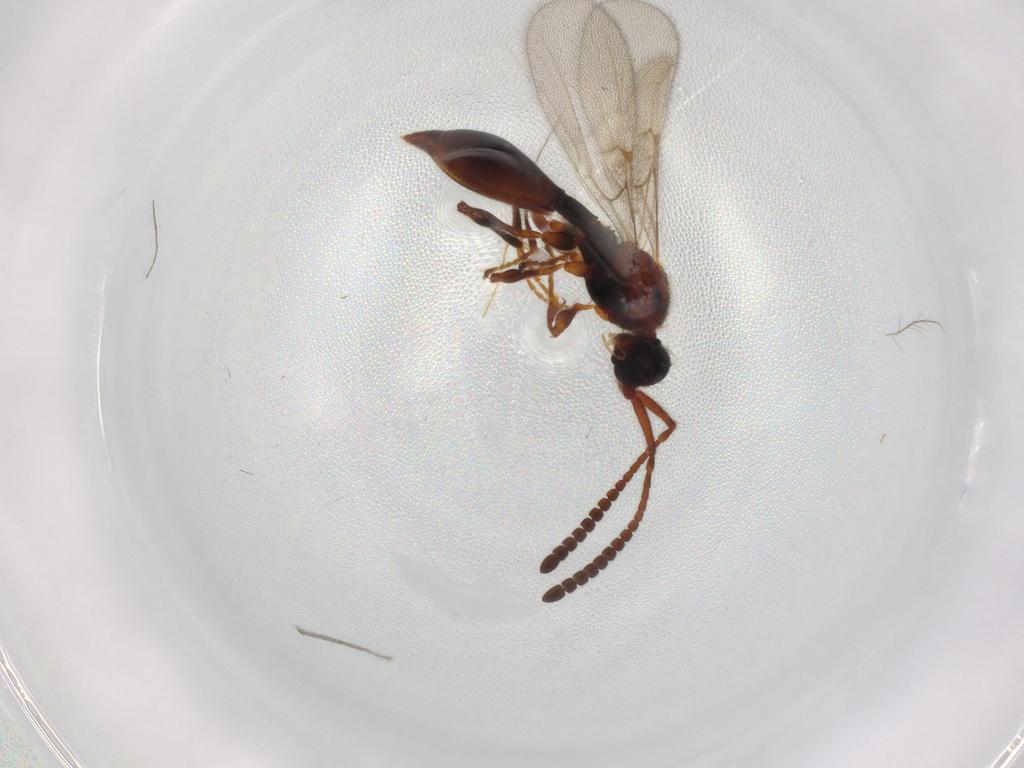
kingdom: Animalia
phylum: Arthropoda
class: Insecta
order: Hymenoptera
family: Diapriidae
